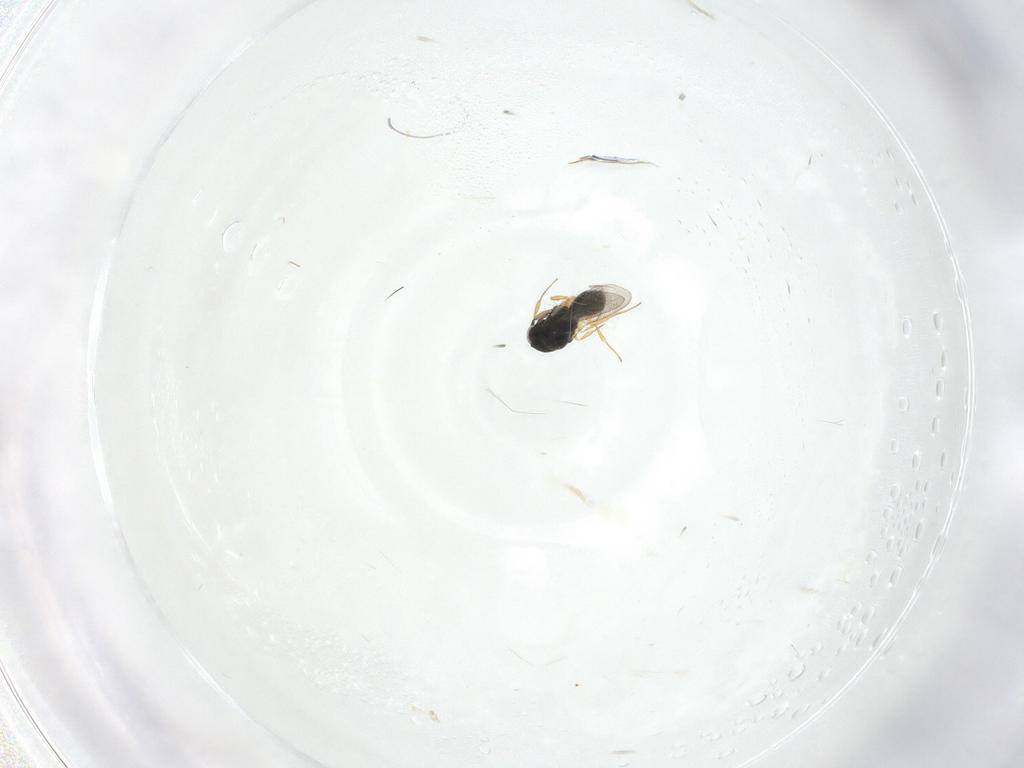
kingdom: Animalia
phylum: Arthropoda
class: Insecta
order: Hymenoptera
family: Scelionidae
